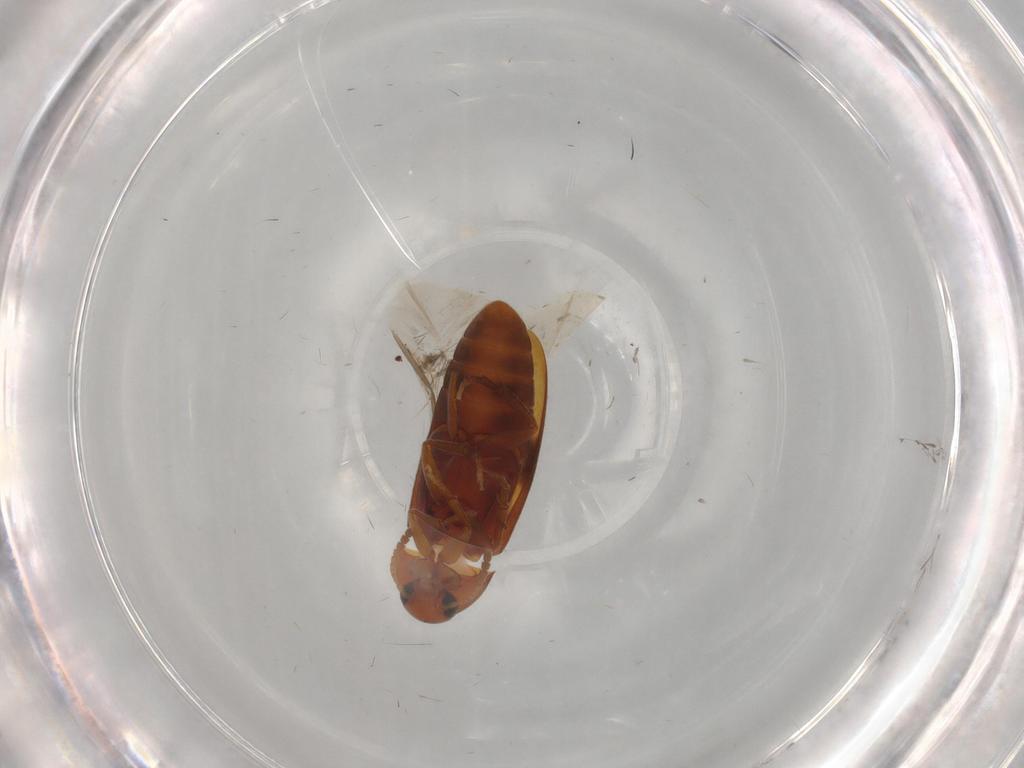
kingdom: Animalia
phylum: Arthropoda
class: Insecta
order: Coleoptera
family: Scraptiidae
